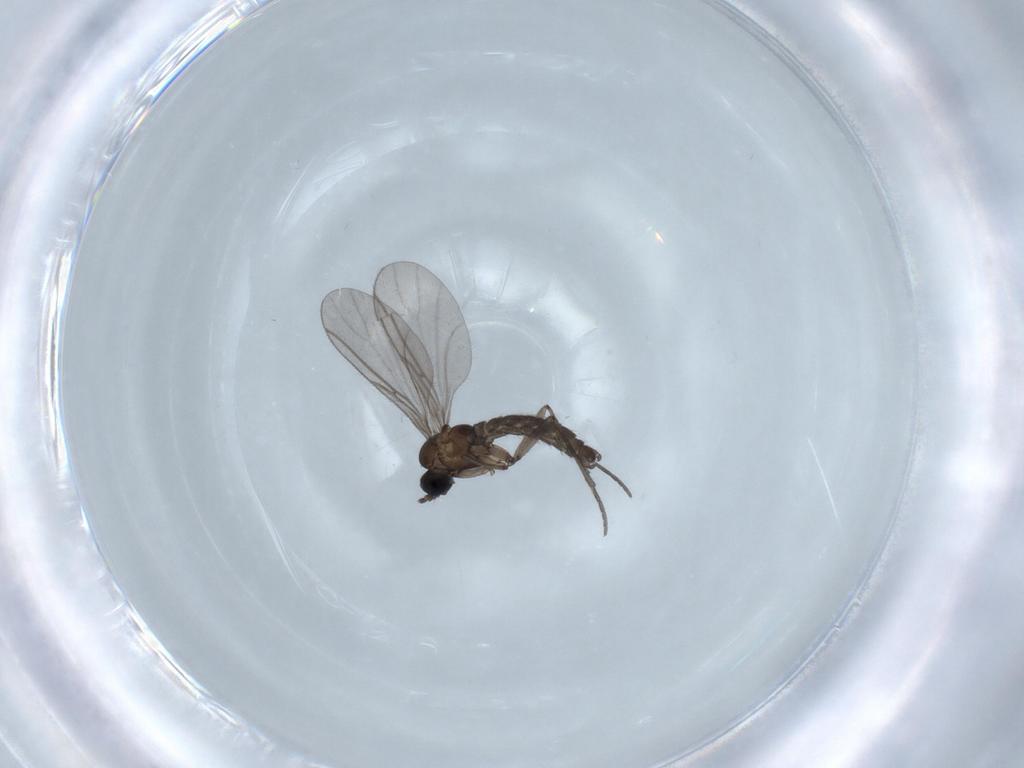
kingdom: Animalia
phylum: Arthropoda
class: Insecta
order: Diptera
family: Sciaridae
